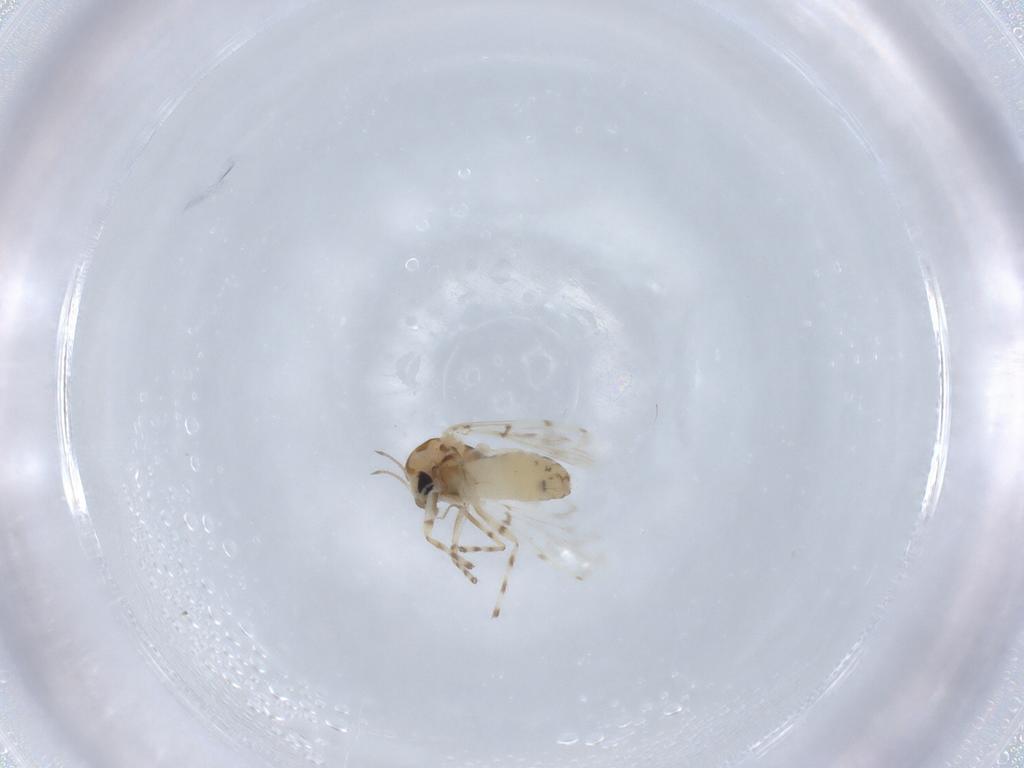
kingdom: Animalia
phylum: Arthropoda
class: Insecta
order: Diptera
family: Chironomidae
